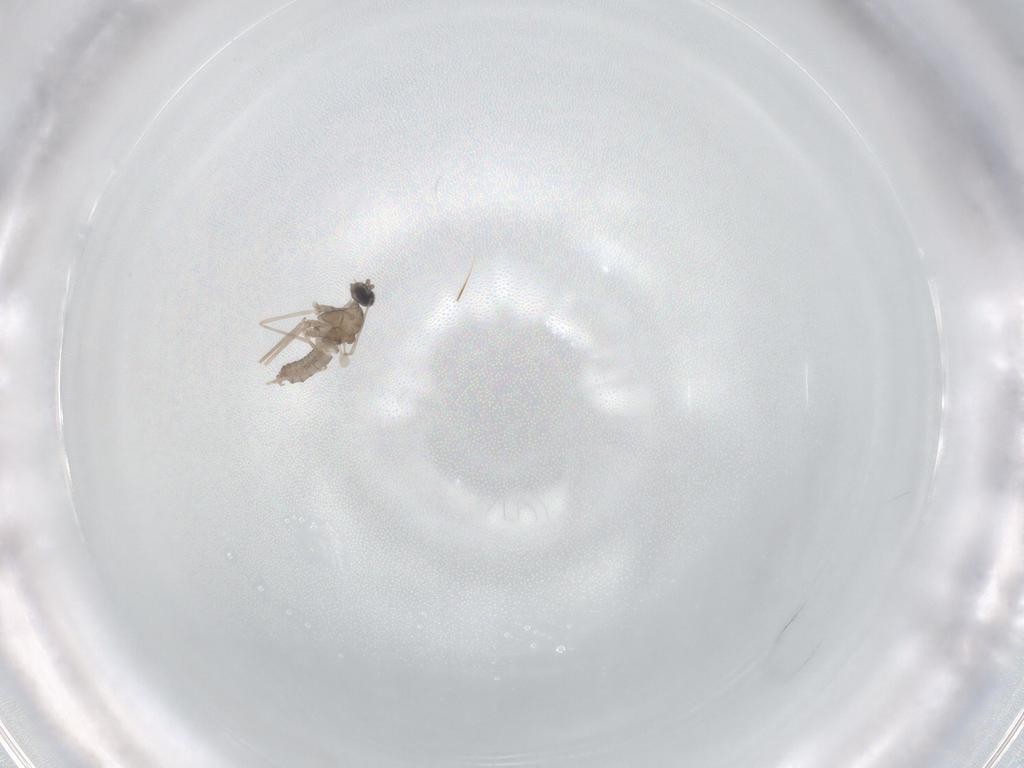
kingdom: Animalia
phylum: Arthropoda
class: Insecta
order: Diptera
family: Cecidomyiidae
